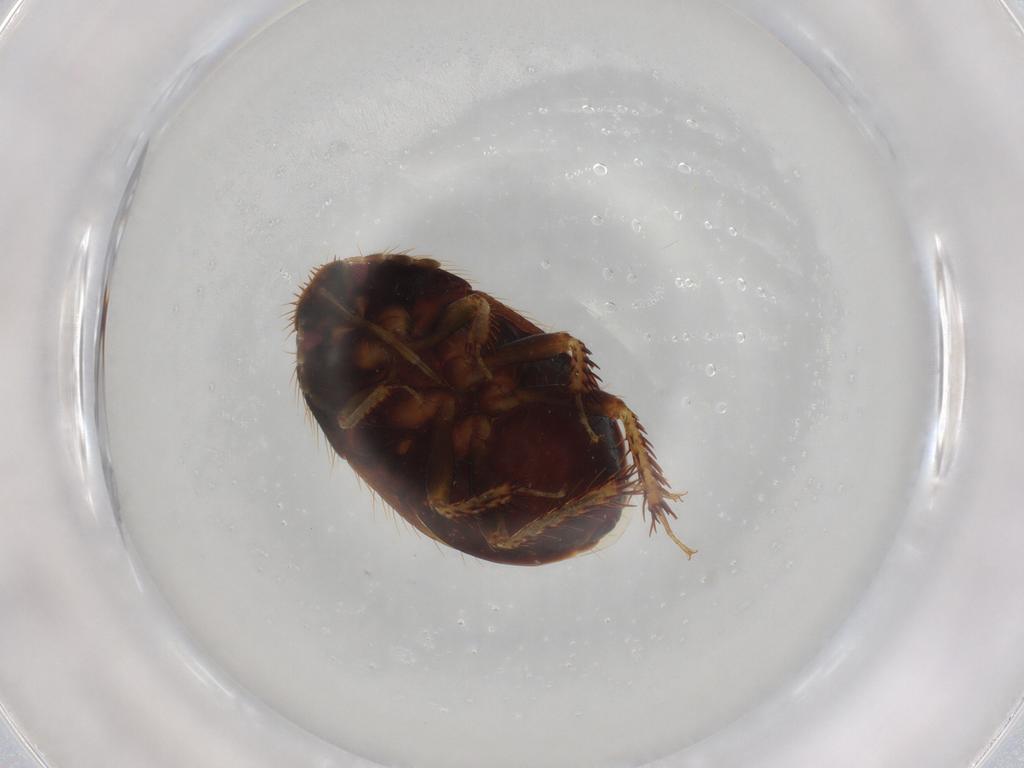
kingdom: Animalia
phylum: Arthropoda
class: Insecta
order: Hemiptera
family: Cydnidae
